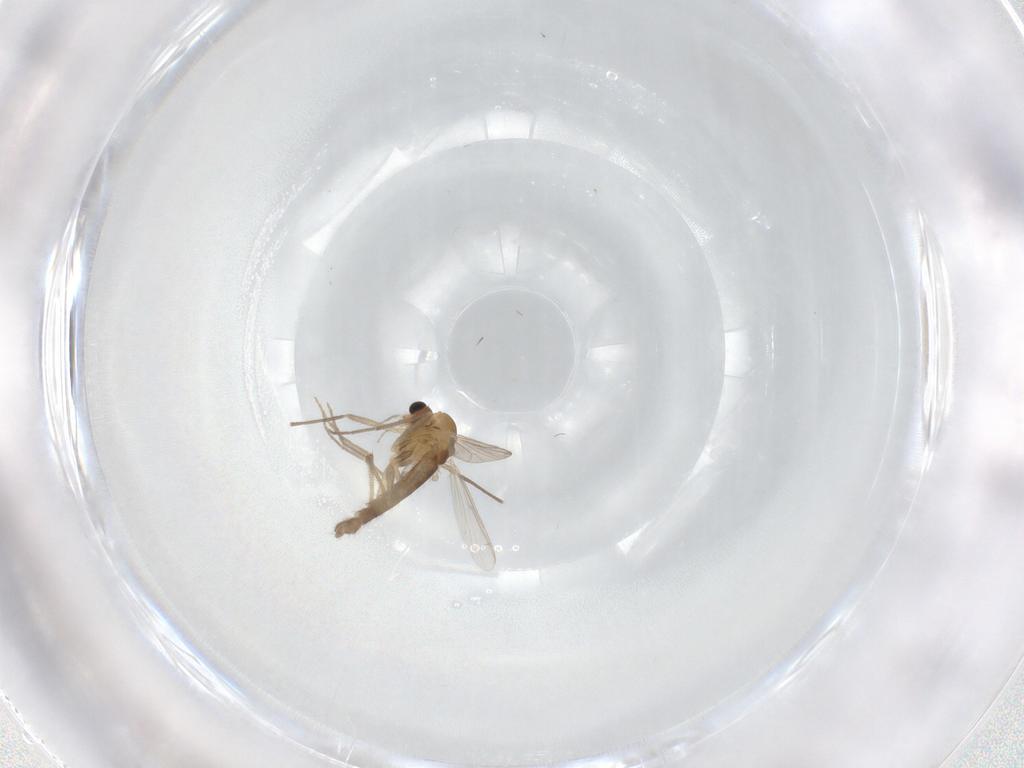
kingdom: Animalia
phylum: Arthropoda
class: Insecta
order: Diptera
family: Chironomidae
